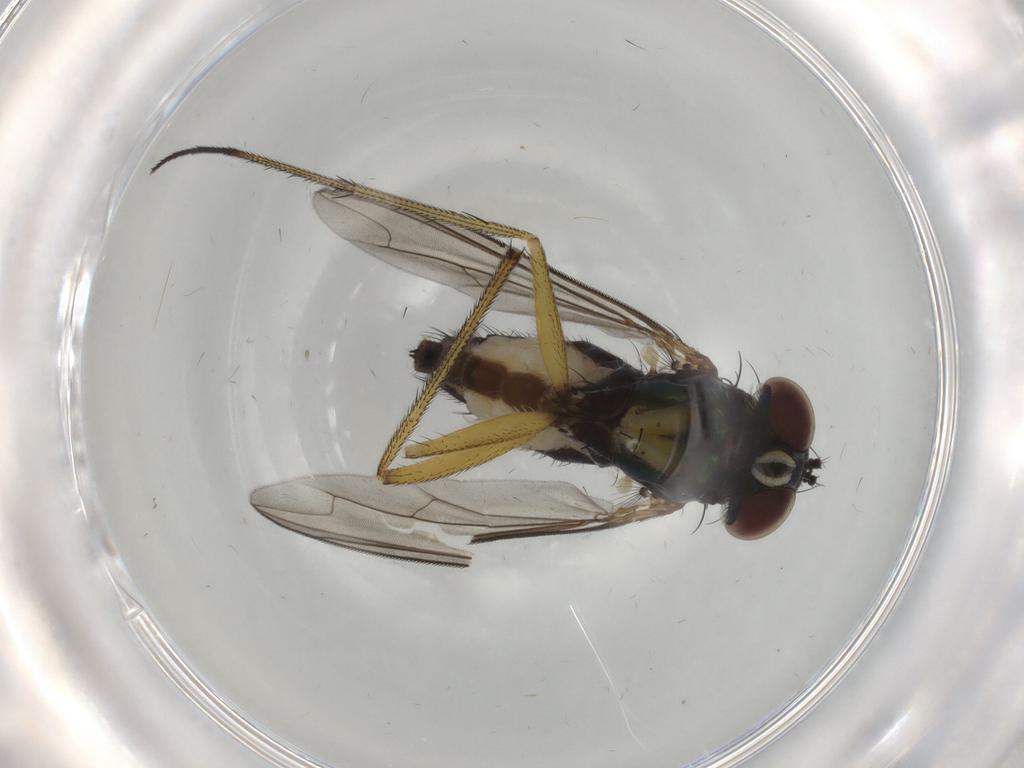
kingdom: Animalia
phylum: Arthropoda
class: Insecta
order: Diptera
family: Dolichopodidae
